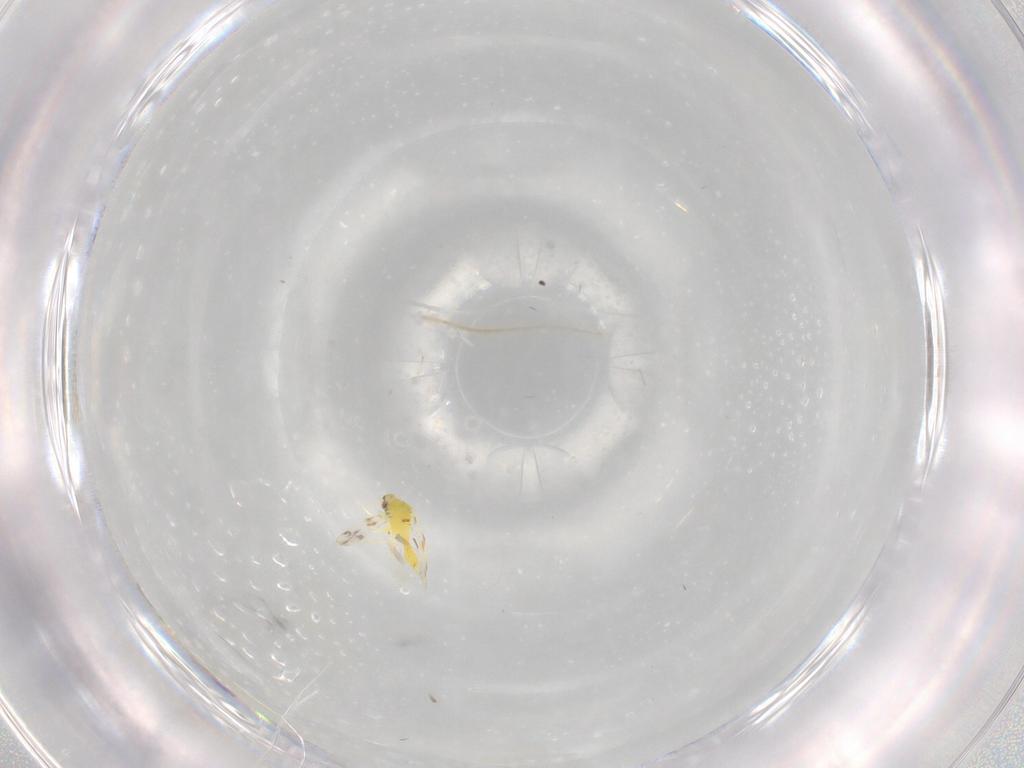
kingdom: Animalia
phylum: Arthropoda
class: Insecta
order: Hemiptera
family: Aleyrodidae
